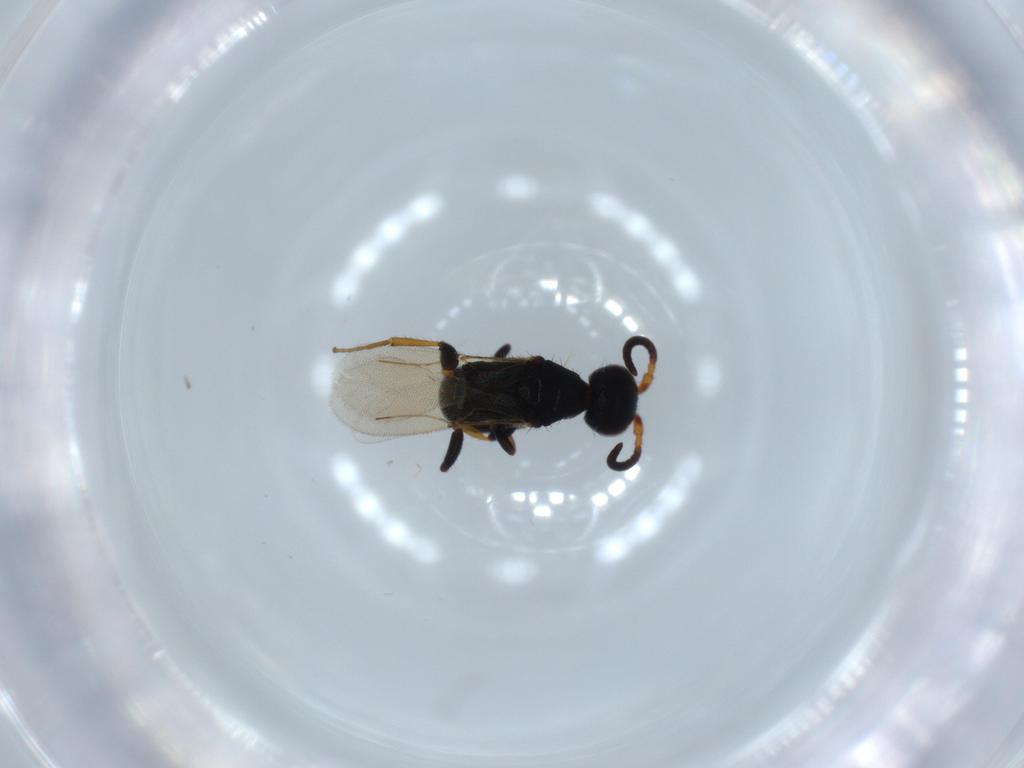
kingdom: Animalia
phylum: Arthropoda
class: Insecta
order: Hymenoptera
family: Bethylidae
